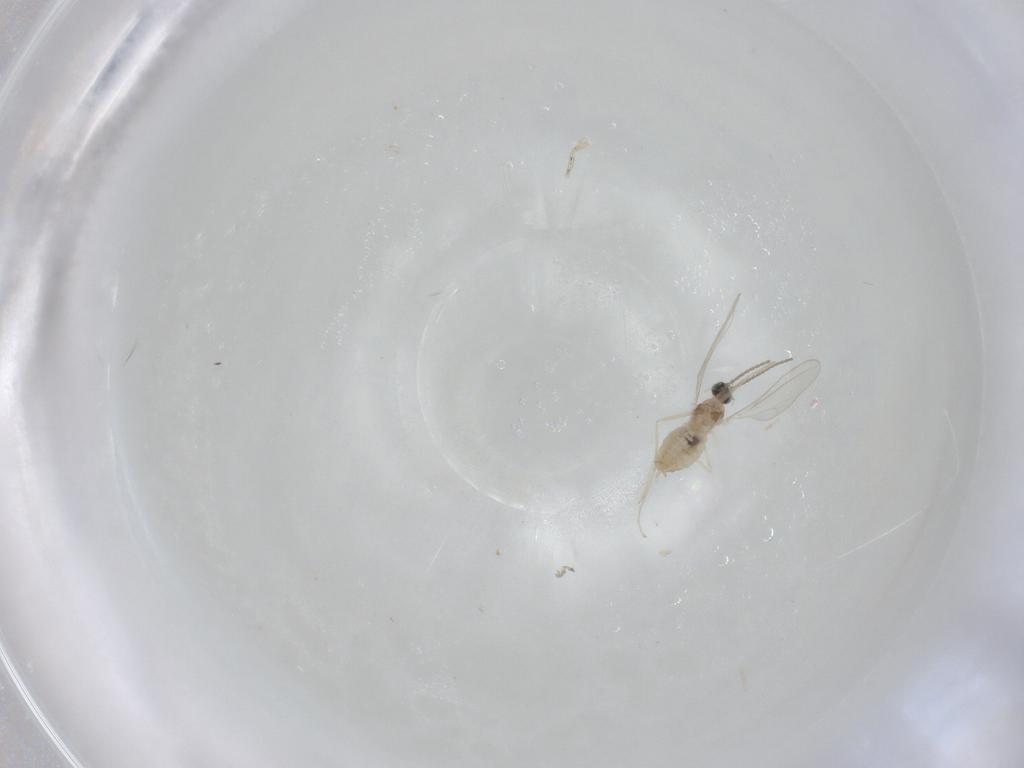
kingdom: Animalia
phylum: Arthropoda
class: Insecta
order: Diptera
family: Cecidomyiidae
